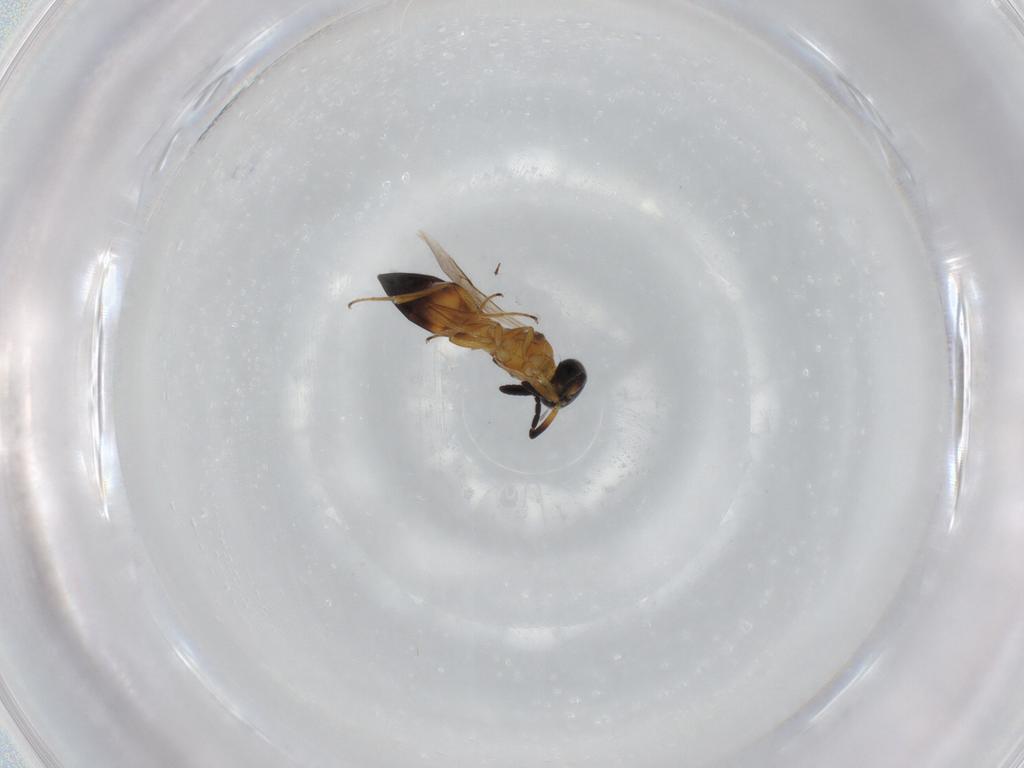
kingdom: Animalia
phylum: Arthropoda
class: Insecta
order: Hymenoptera
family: Scelionidae
